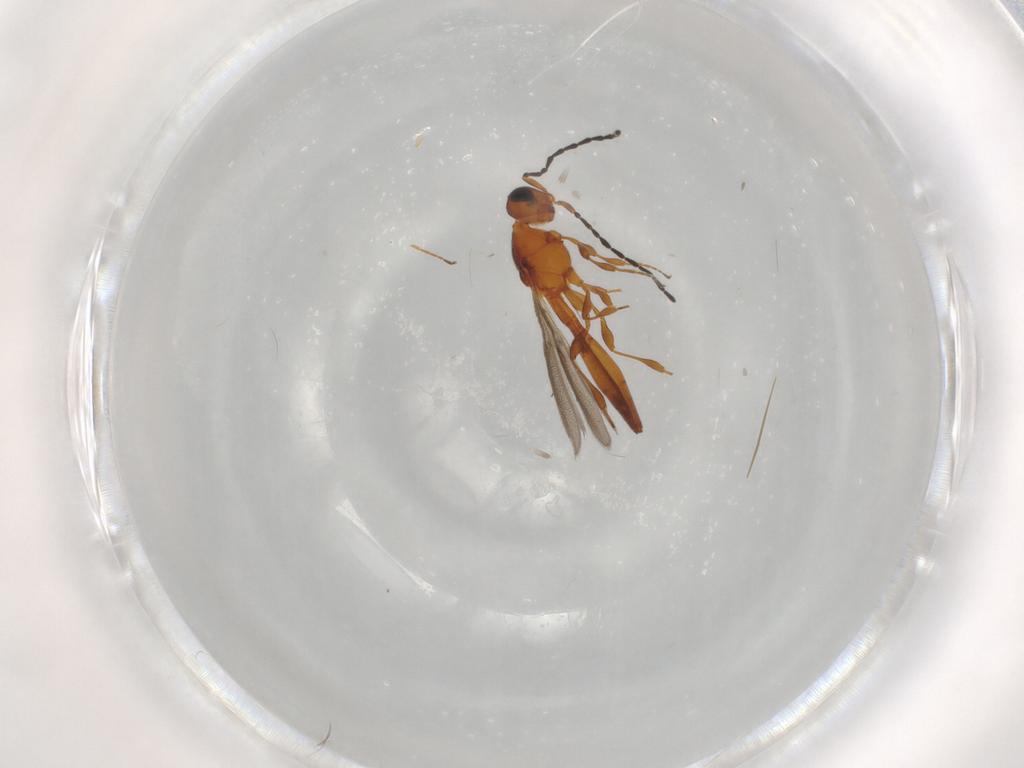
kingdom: Animalia
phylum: Arthropoda
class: Insecta
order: Hymenoptera
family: Scelionidae
